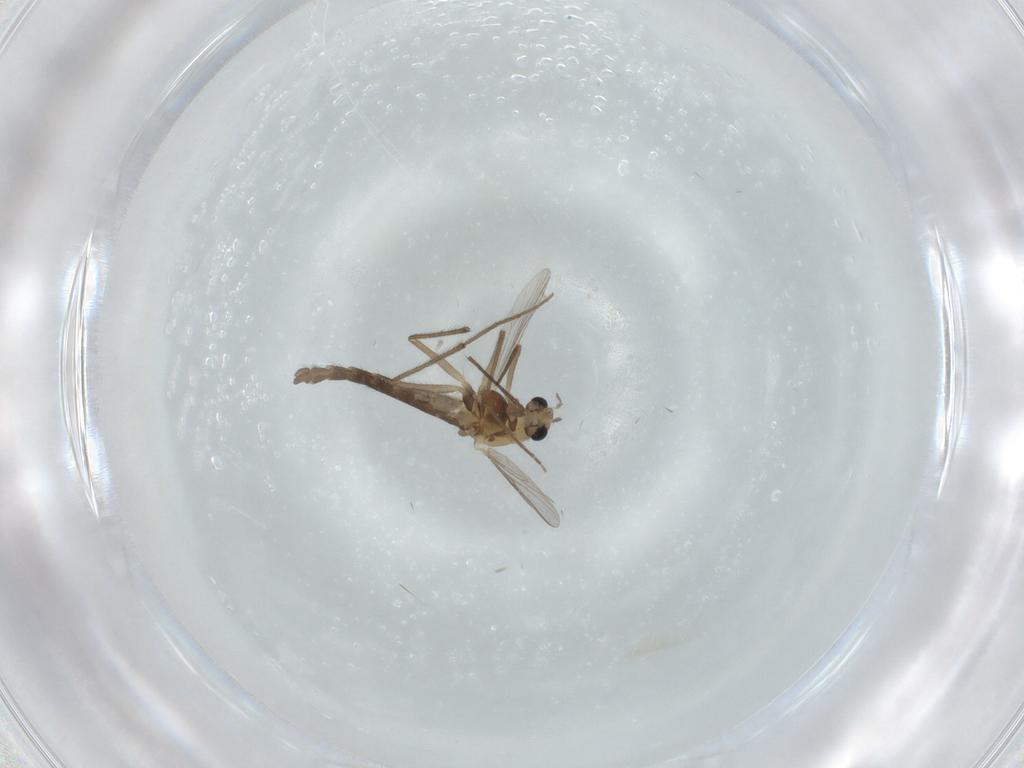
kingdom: Animalia
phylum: Arthropoda
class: Insecta
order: Diptera
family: Chironomidae
